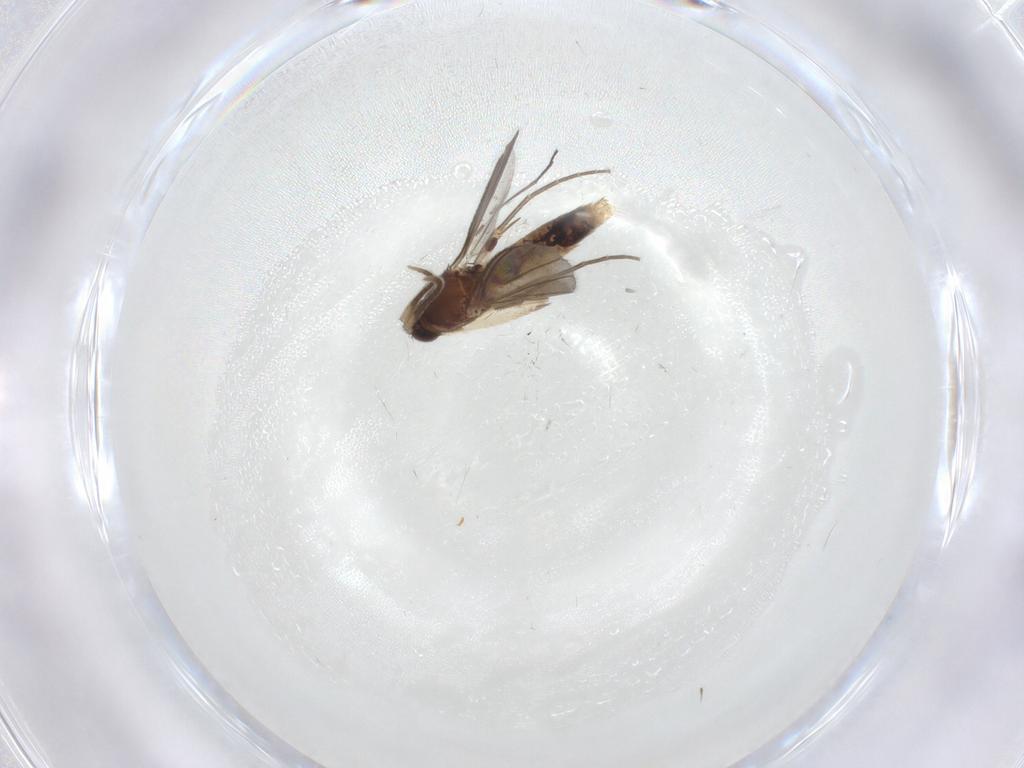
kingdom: Animalia
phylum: Arthropoda
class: Insecta
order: Diptera
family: Mycetophilidae
